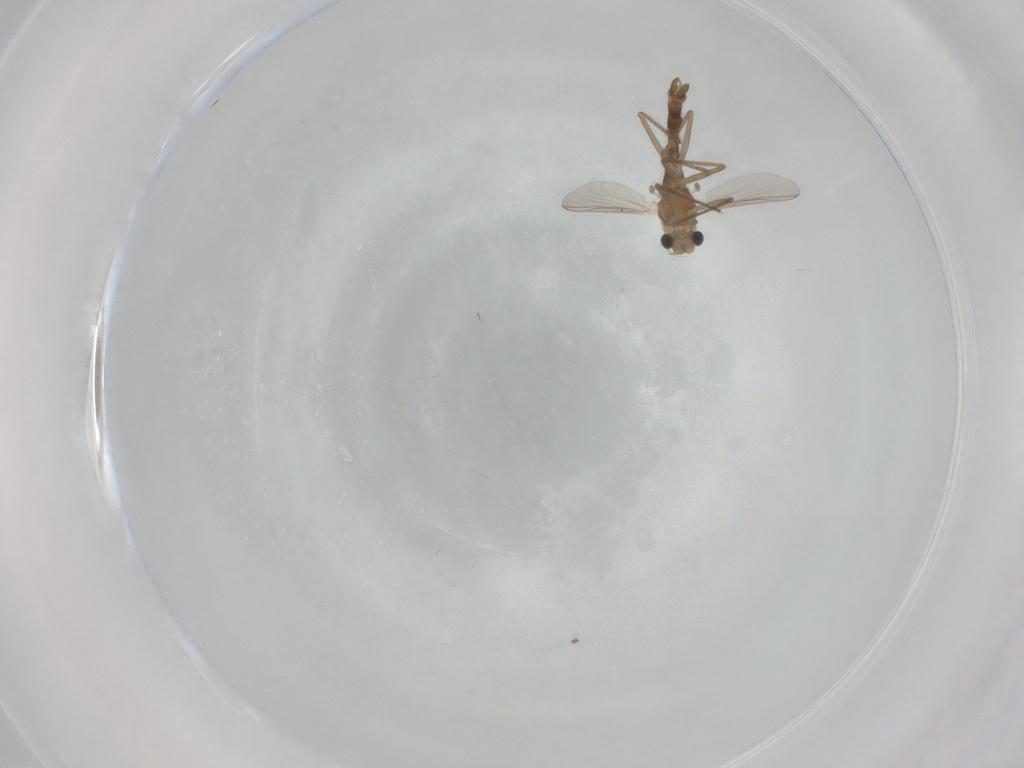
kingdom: Animalia
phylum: Arthropoda
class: Insecta
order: Diptera
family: Chironomidae
